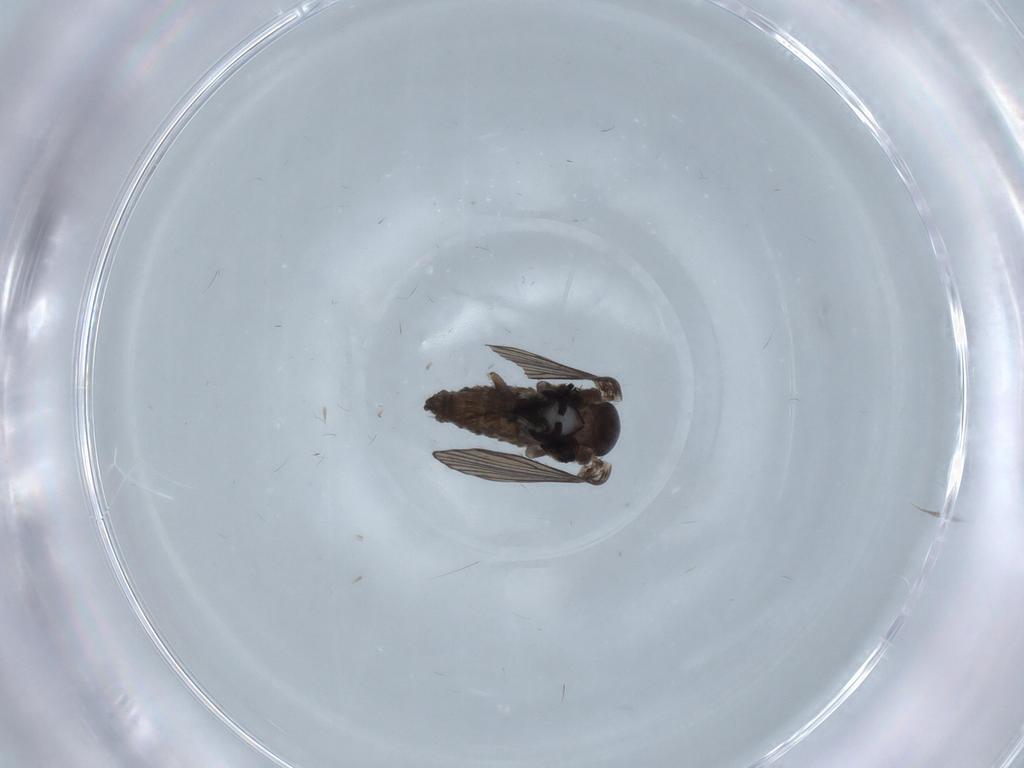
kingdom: Animalia
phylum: Arthropoda
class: Insecta
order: Diptera
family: Psychodidae
